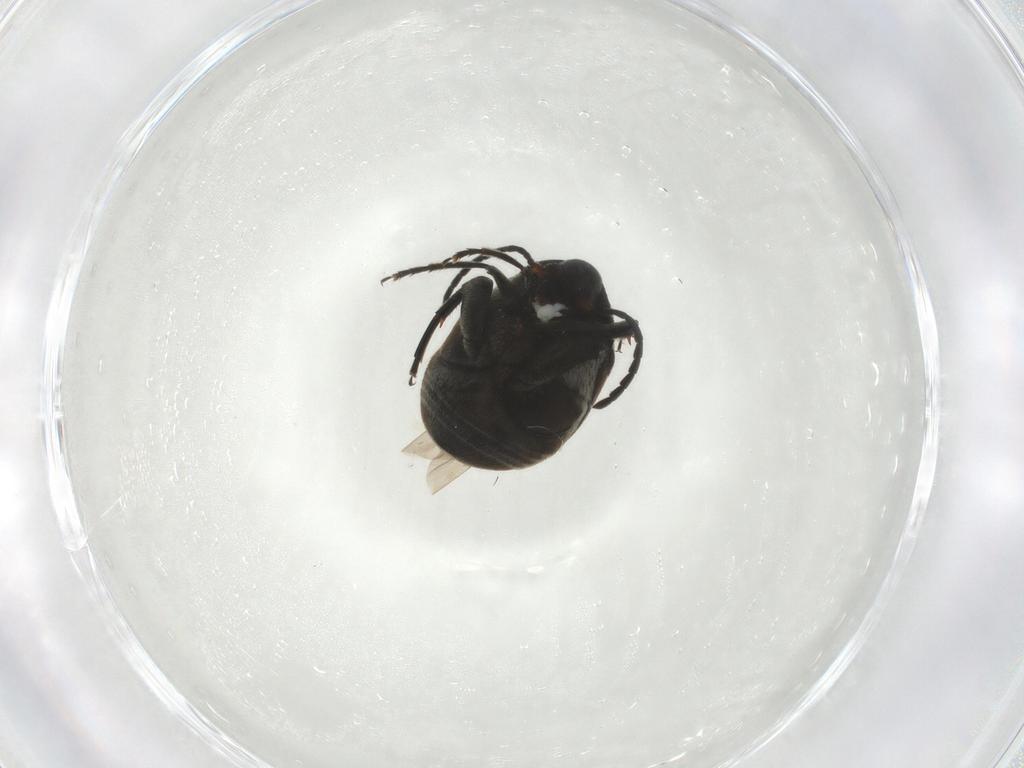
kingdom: Animalia
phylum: Arthropoda
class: Insecta
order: Coleoptera
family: Chrysomelidae
